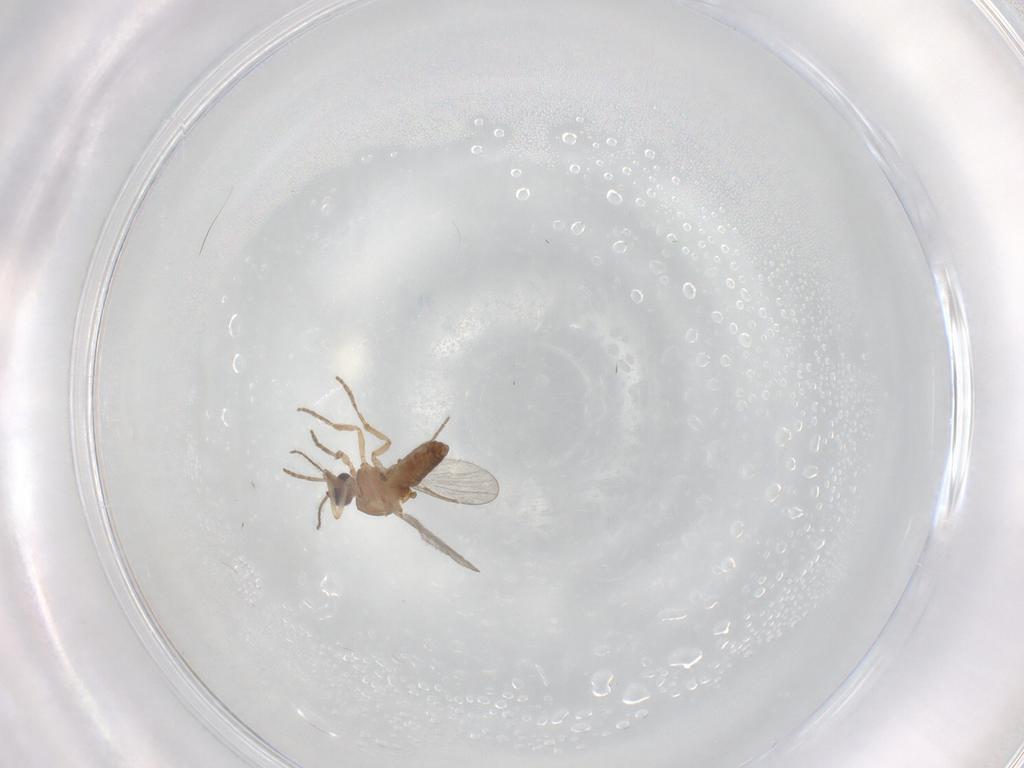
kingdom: Animalia
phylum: Arthropoda
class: Insecta
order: Diptera
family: Chironomidae
